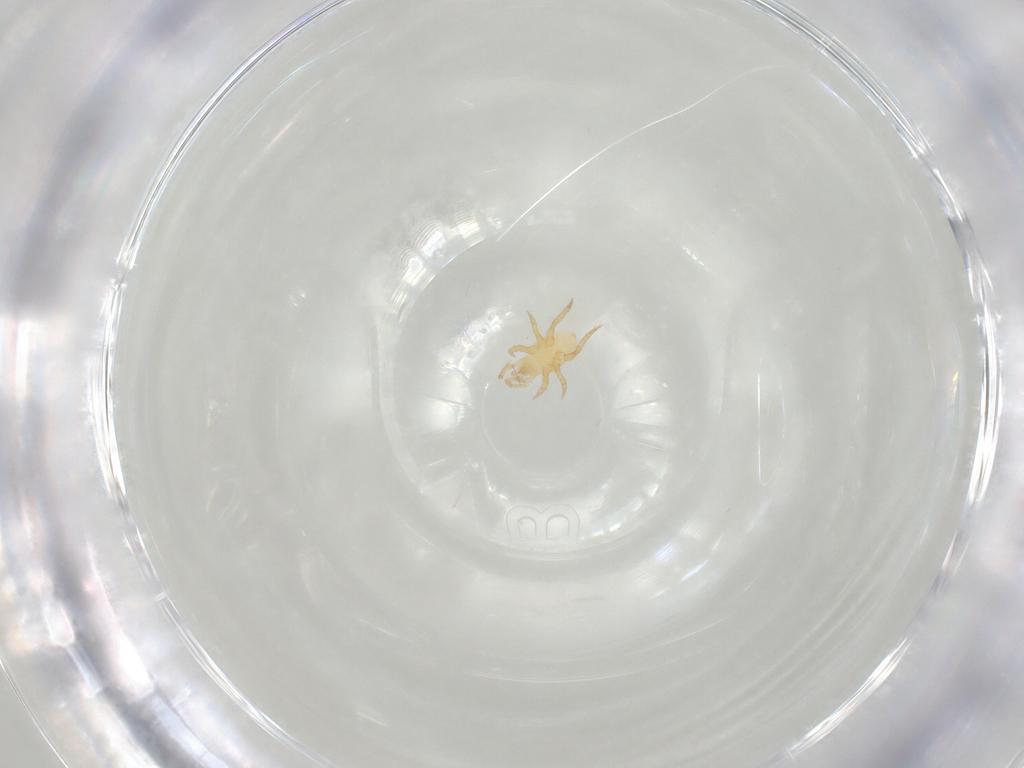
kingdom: Animalia
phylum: Arthropoda
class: Arachnida
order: Mesostigmata
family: Parasitidae
